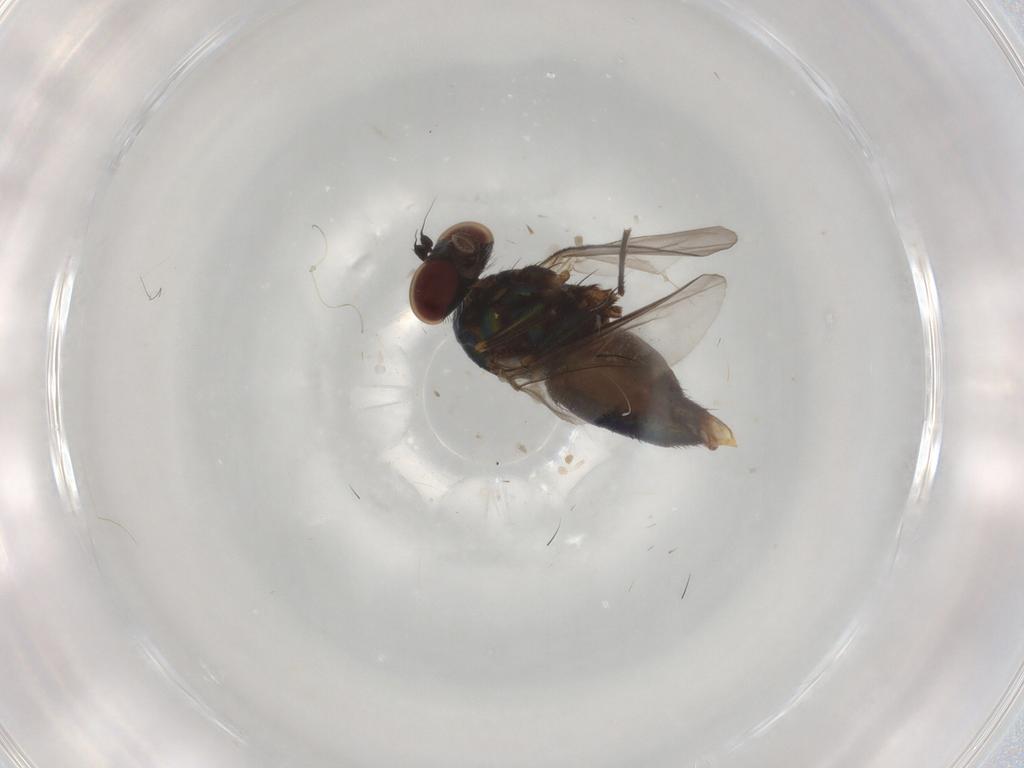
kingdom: Animalia
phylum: Arthropoda
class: Insecta
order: Diptera
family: Dolichopodidae
